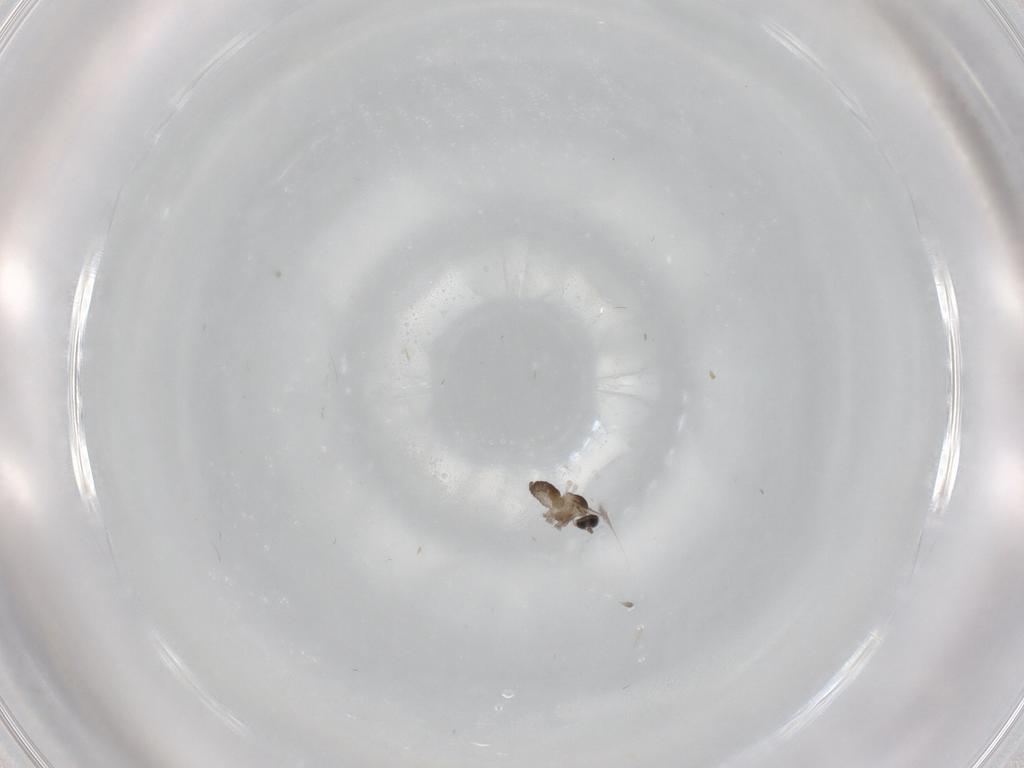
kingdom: Animalia
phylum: Arthropoda
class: Insecta
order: Diptera
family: Cecidomyiidae
